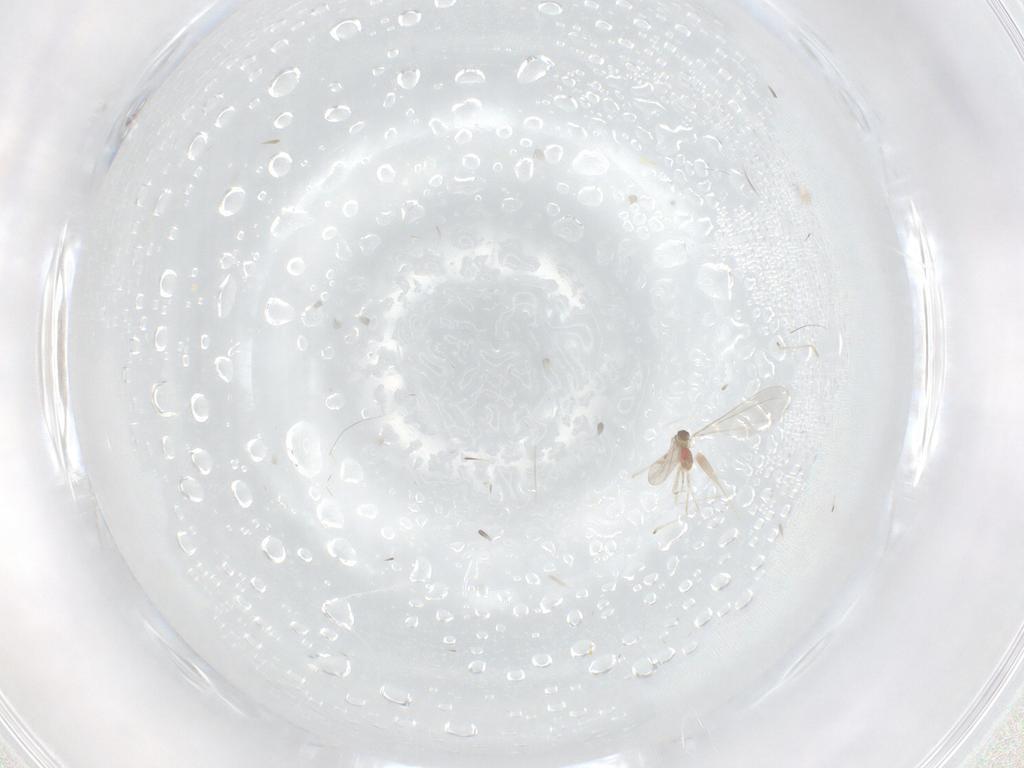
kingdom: Animalia
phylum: Arthropoda
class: Insecta
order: Diptera
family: Cecidomyiidae
